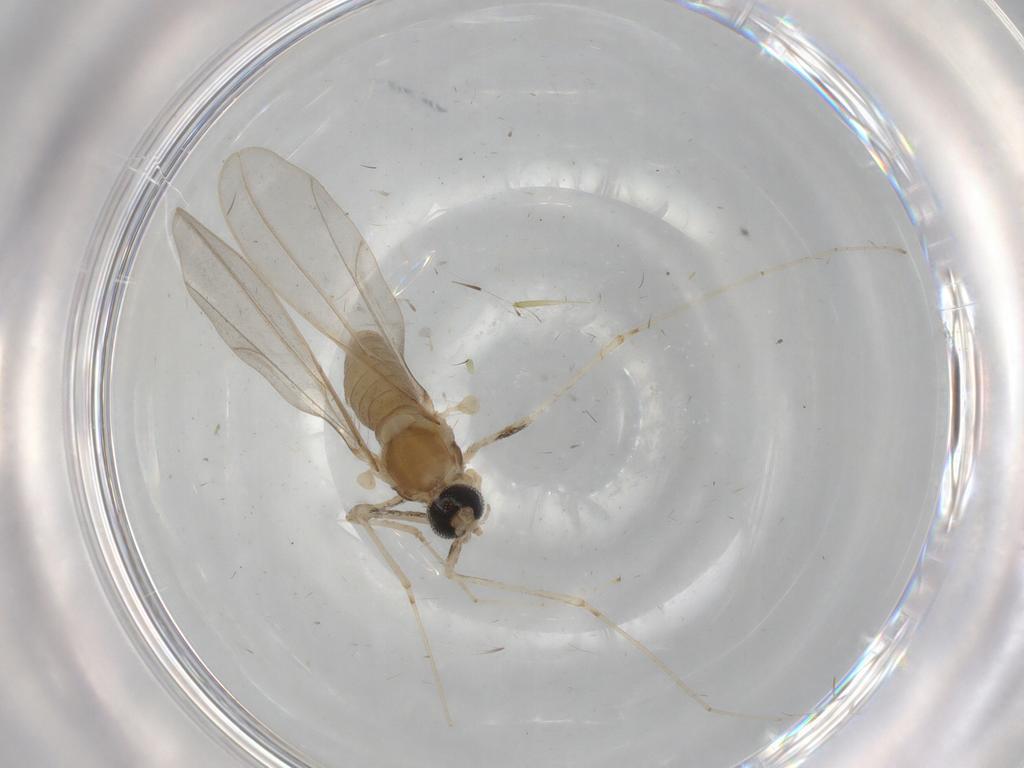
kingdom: Animalia
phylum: Arthropoda
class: Insecta
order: Diptera
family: Cecidomyiidae
